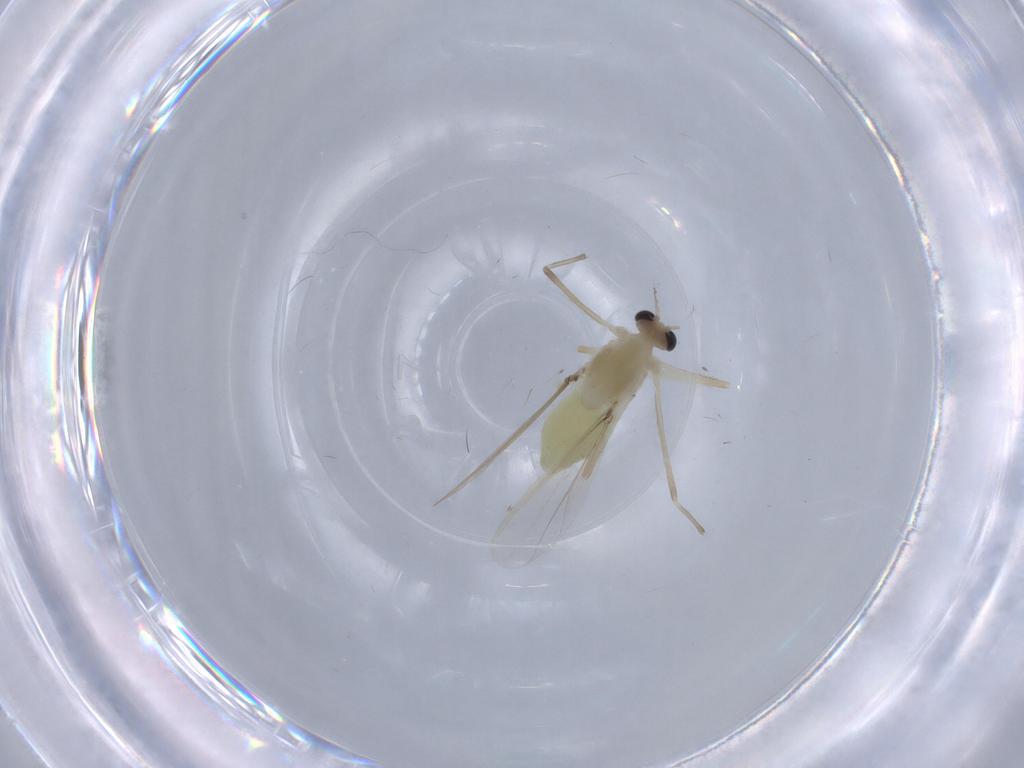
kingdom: Animalia
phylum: Arthropoda
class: Insecta
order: Diptera
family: Chironomidae
